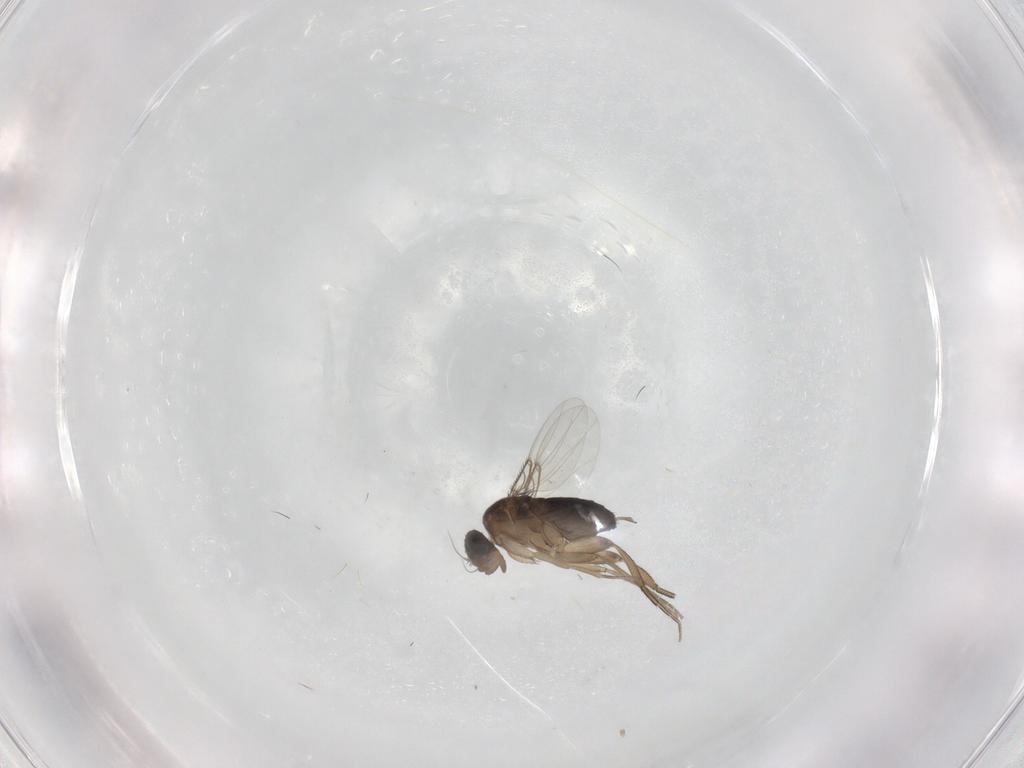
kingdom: Animalia
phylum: Arthropoda
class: Insecta
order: Diptera
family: Phoridae
